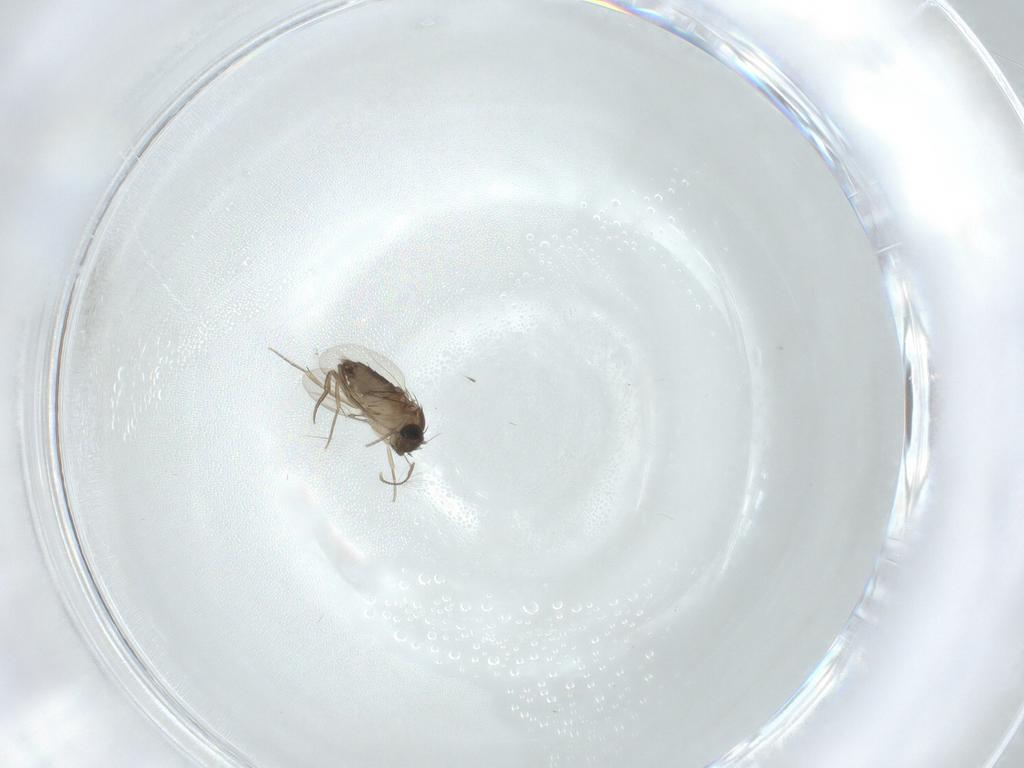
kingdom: Animalia
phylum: Arthropoda
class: Insecta
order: Diptera
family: Phoridae
